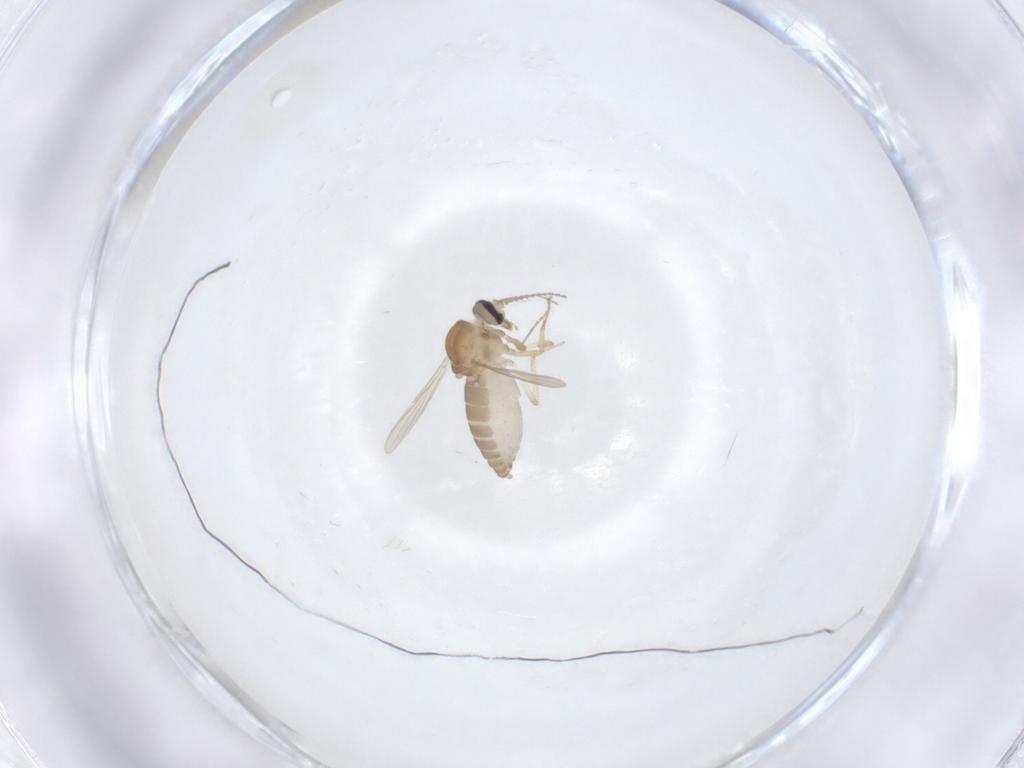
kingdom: Animalia
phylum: Arthropoda
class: Insecta
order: Diptera
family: Ceratopogonidae
